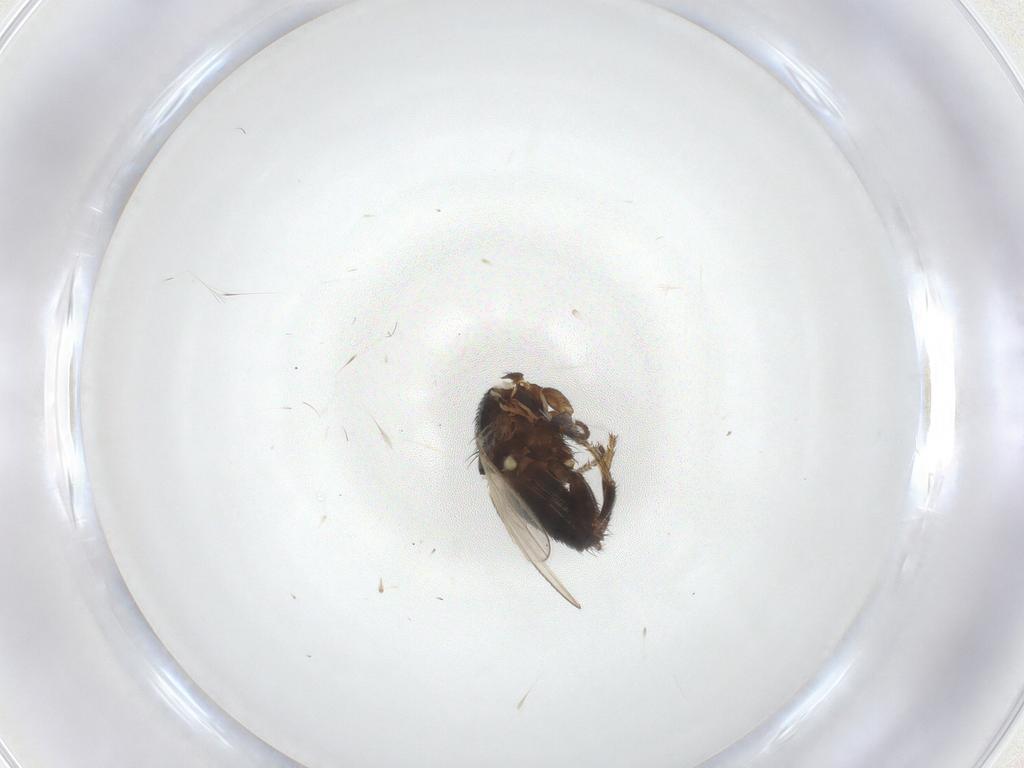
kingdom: Animalia
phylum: Arthropoda
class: Insecta
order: Diptera
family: Milichiidae
